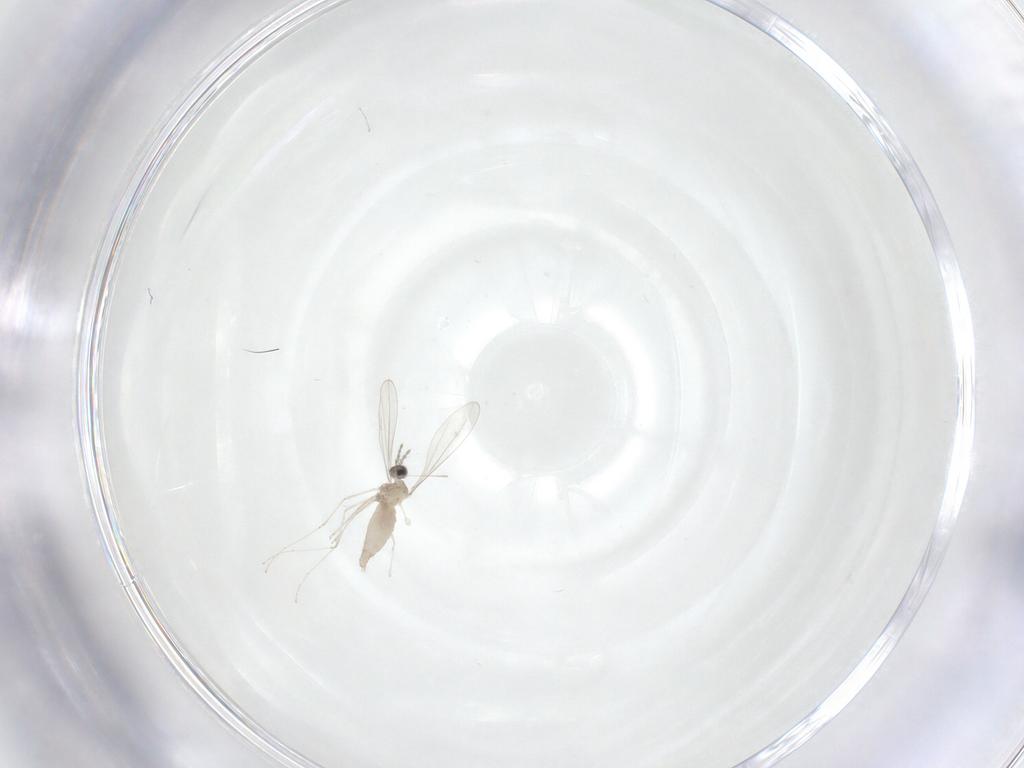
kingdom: Animalia
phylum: Arthropoda
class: Insecta
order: Diptera
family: Cecidomyiidae
